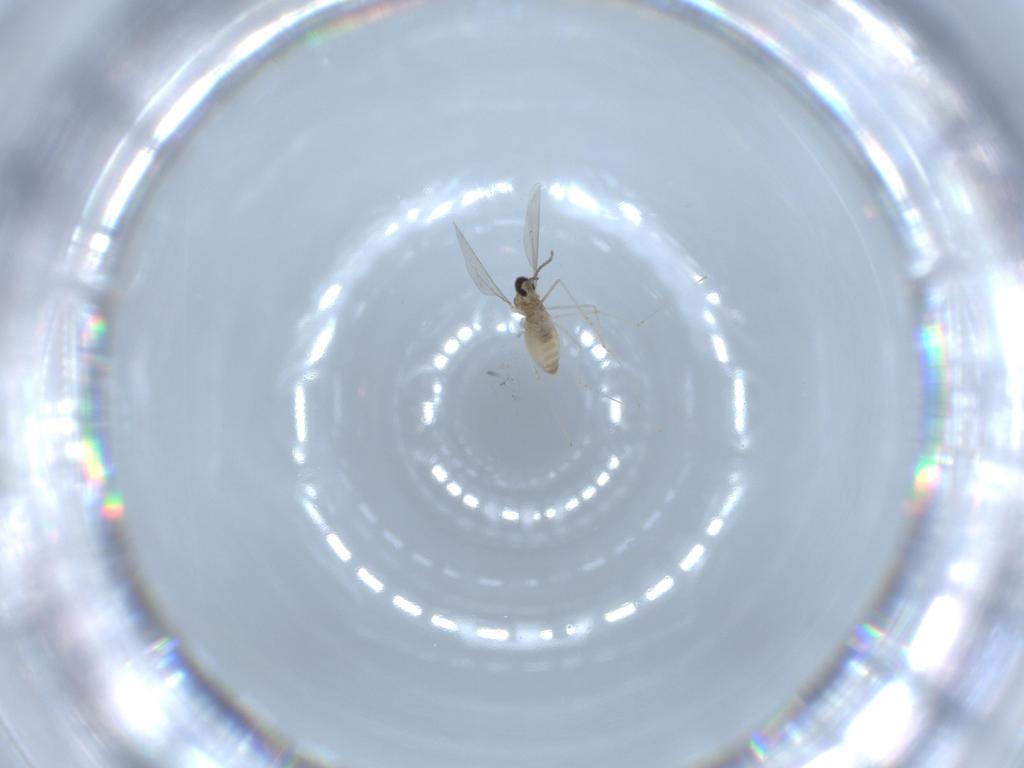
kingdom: Animalia
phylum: Arthropoda
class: Insecta
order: Diptera
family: Cecidomyiidae
